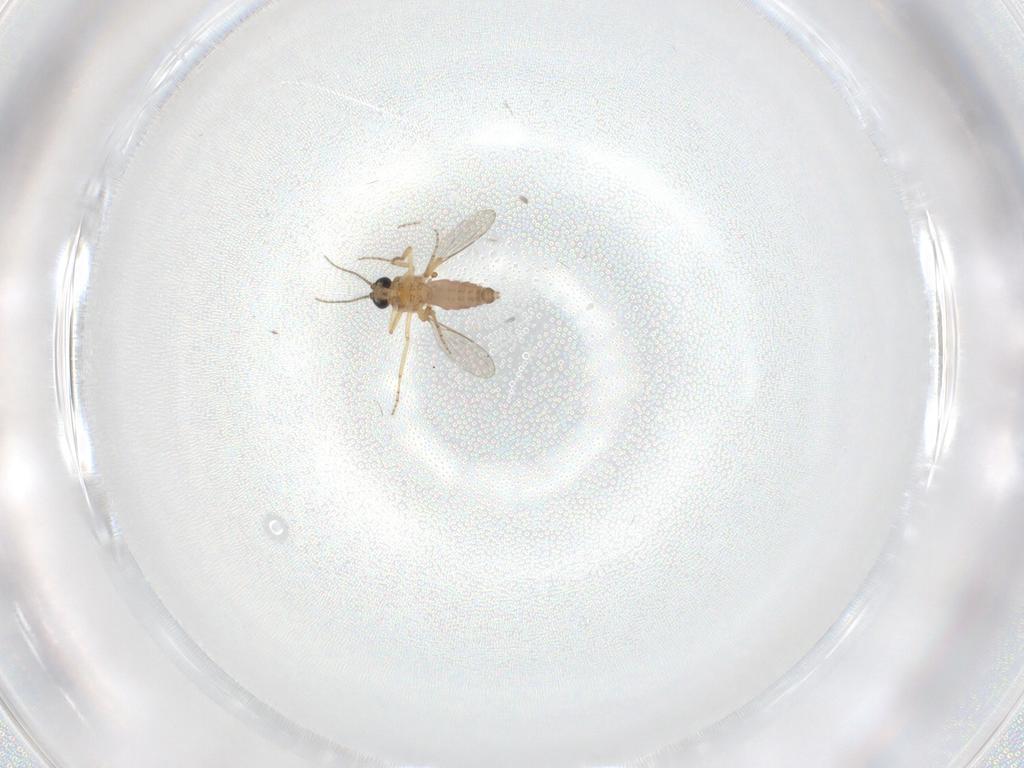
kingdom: Animalia
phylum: Arthropoda
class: Insecta
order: Diptera
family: Ceratopogonidae
